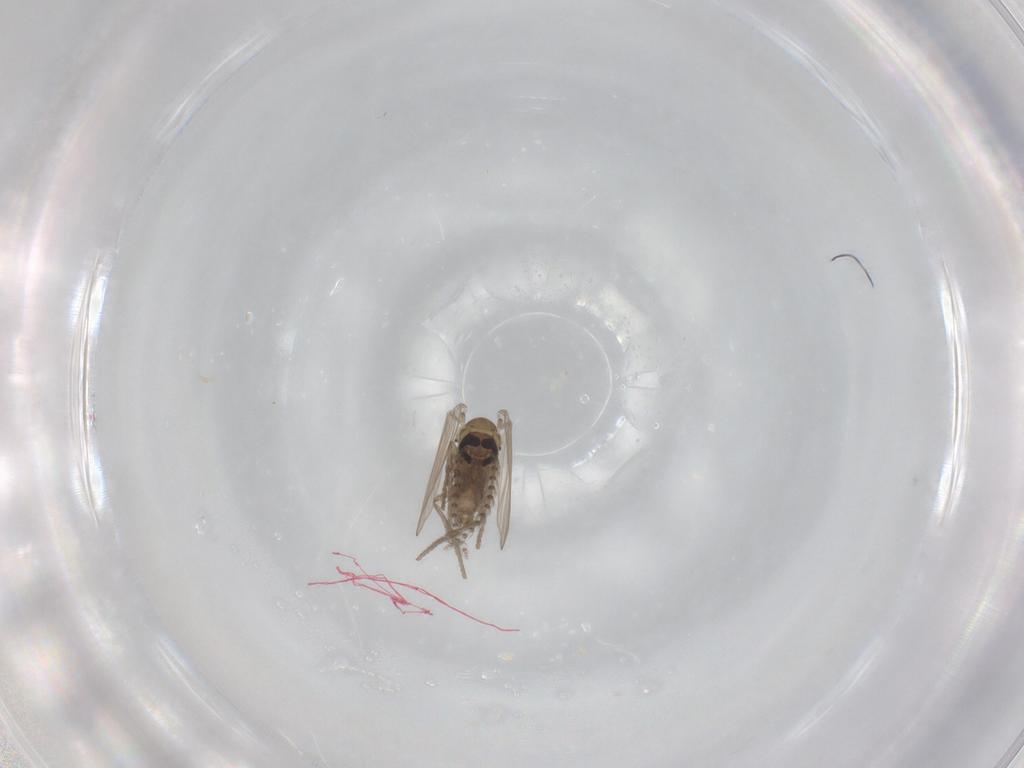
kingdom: Animalia
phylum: Arthropoda
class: Insecta
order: Diptera
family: Psychodidae
